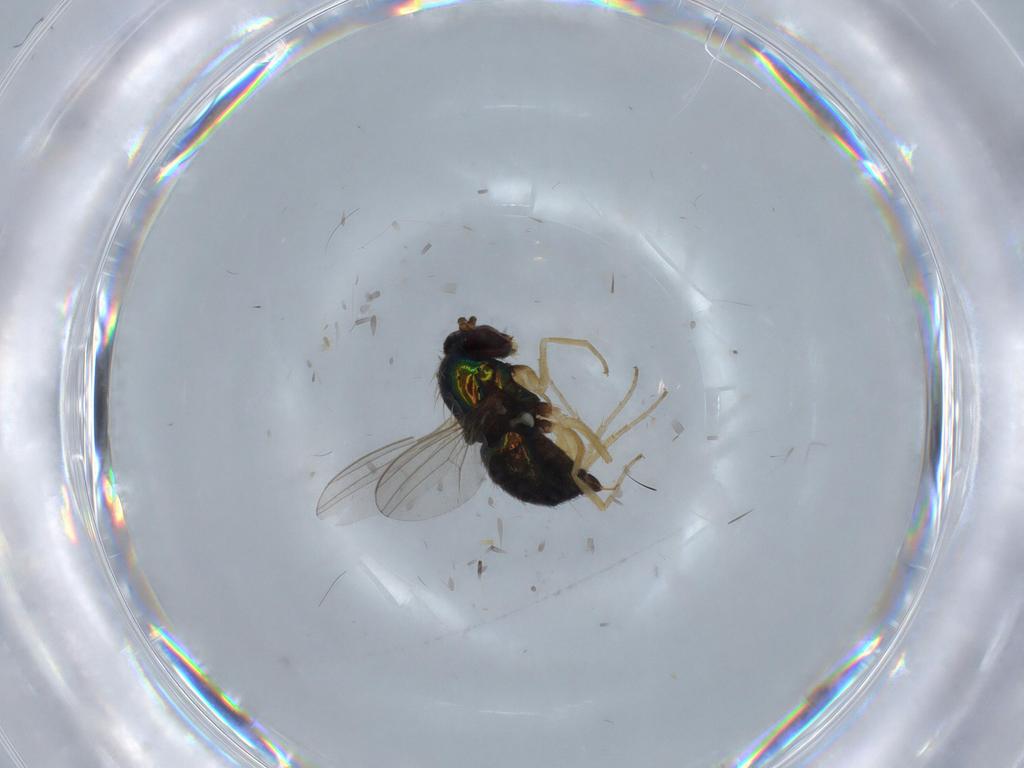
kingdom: Animalia
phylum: Arthropoda
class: Insecta
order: Diptera
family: Dolichopodidae
